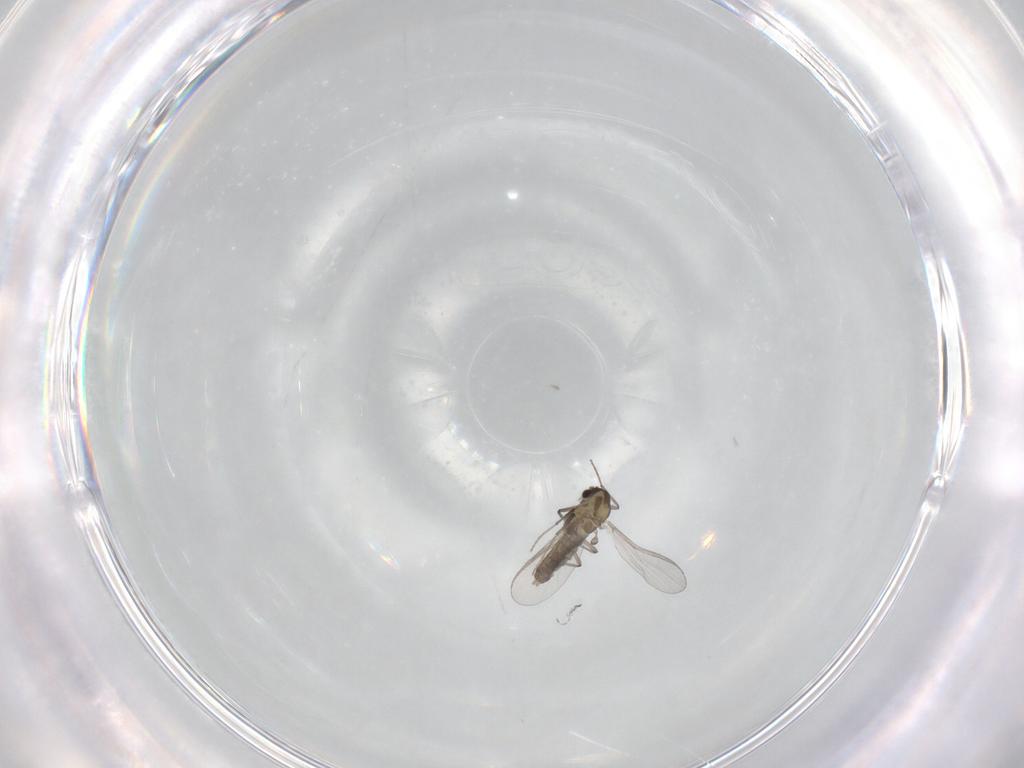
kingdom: Animalia
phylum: Arthropoda
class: Insecta
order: Diptera
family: Chironomidae
